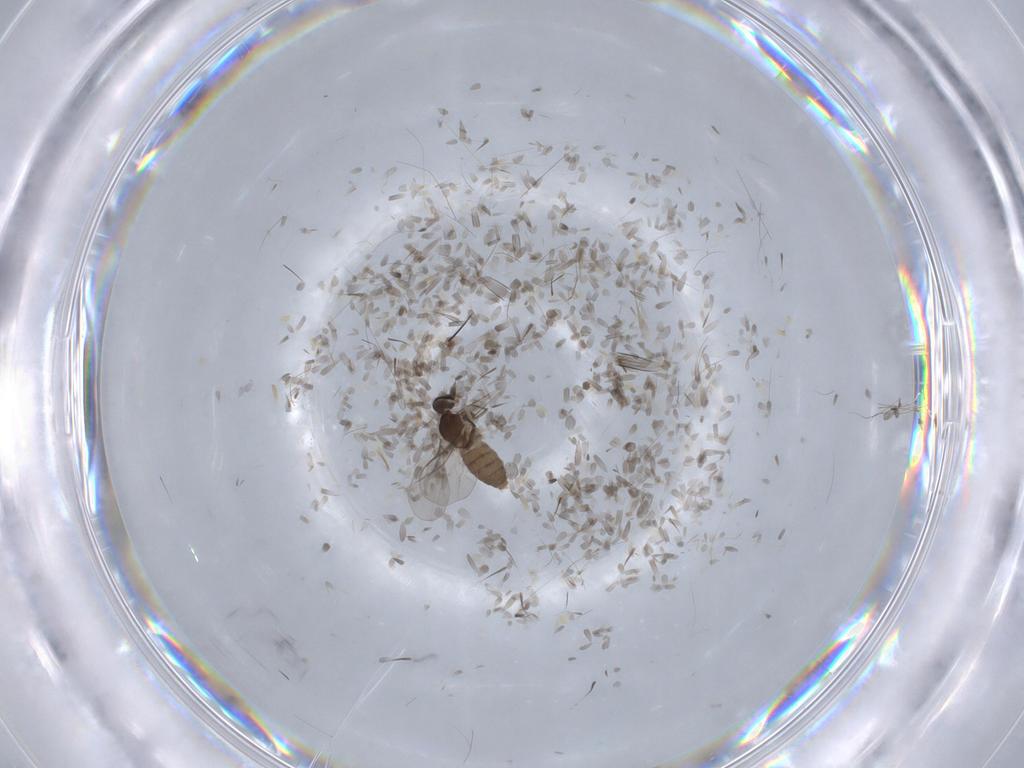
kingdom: Animalia
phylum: Arthropoda
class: Insecta
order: Diptera
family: Cecidomyiidae
